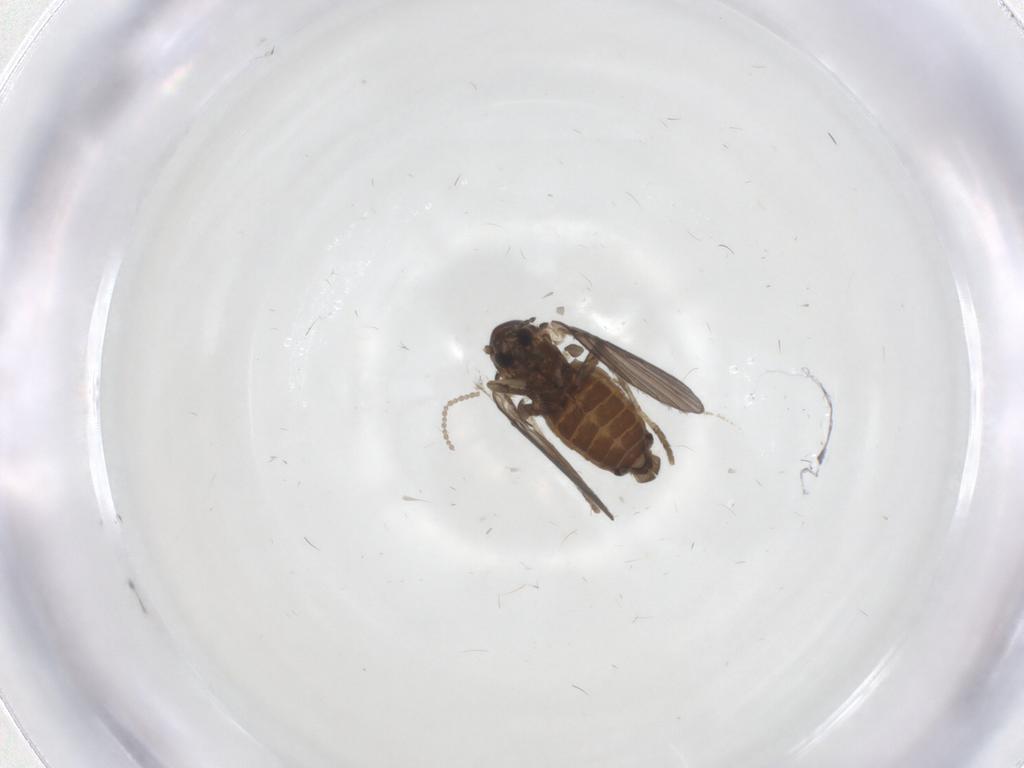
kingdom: Animalia
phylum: Arthropoda
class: Insecta
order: Diptera
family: Psychodidae
